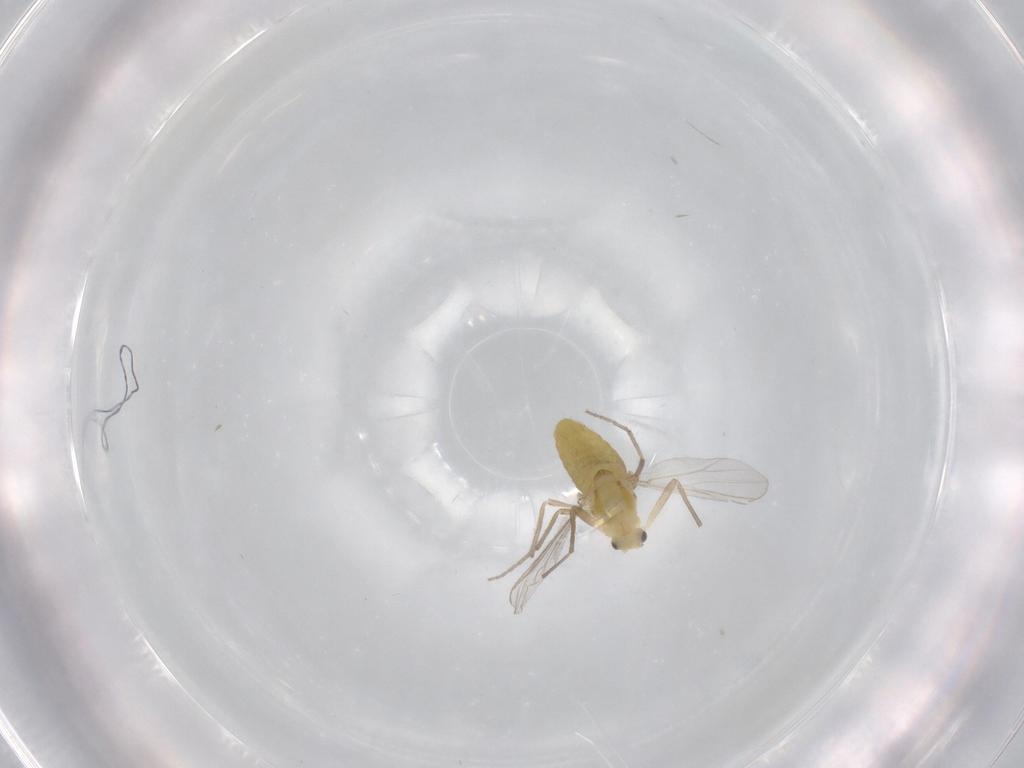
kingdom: Animalia
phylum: Arthropoda
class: Insecta
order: Diptera
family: Chironomidae
